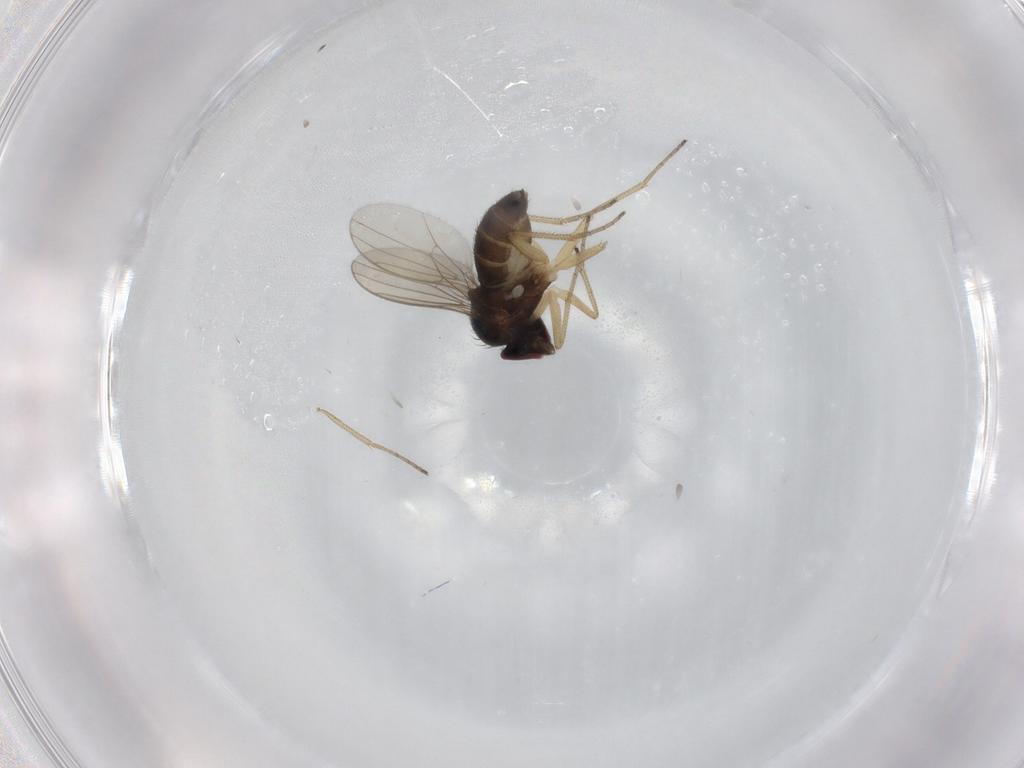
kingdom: Animalia
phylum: Arthropoda
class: Insecta
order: Diptera
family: Dolichopodidae
